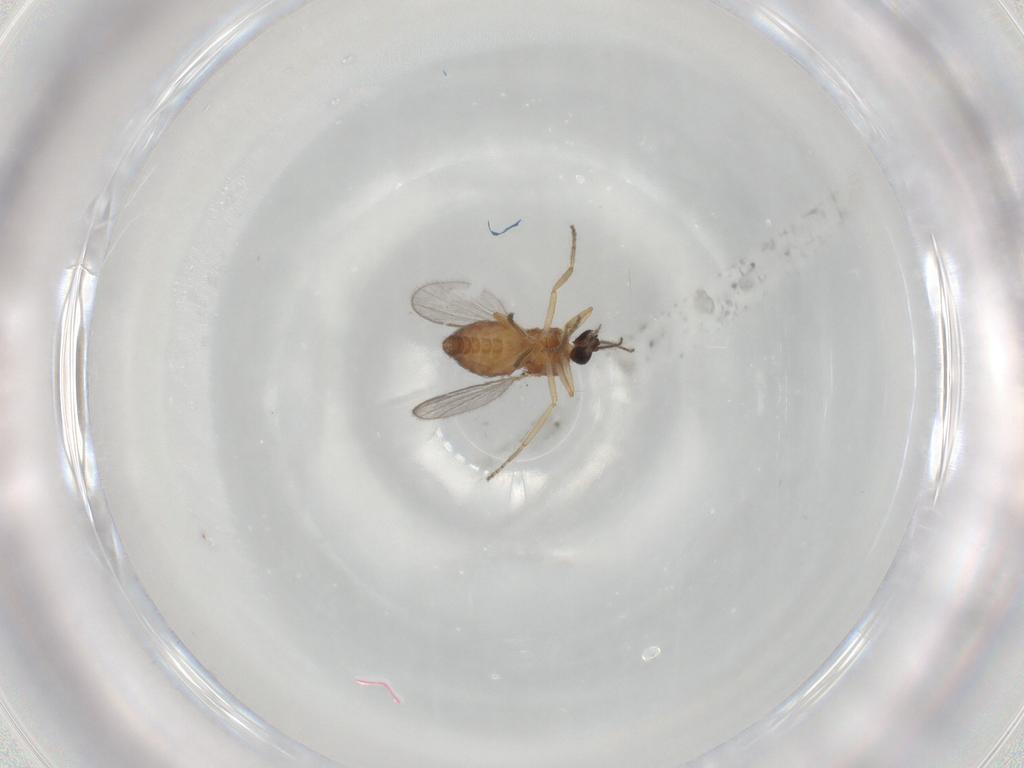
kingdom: Animalia
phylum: Arthropoda
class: Insecta
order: Diptera
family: Ceratopogonidae
